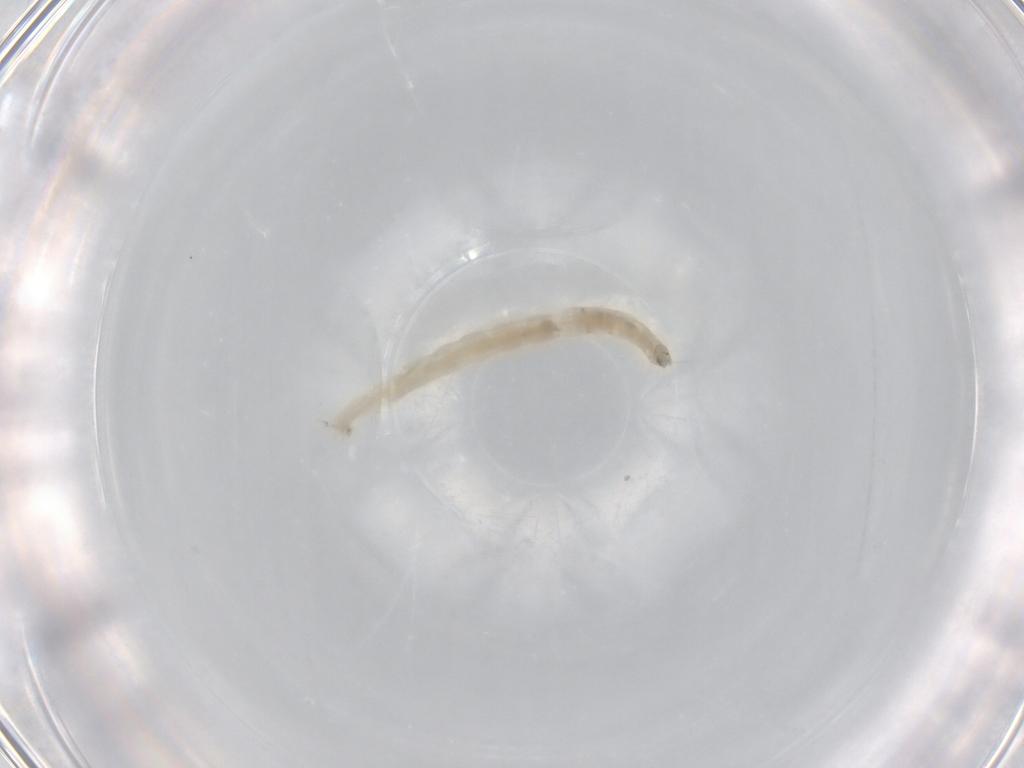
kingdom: Animalia
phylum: Arthropoda
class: Insecta
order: Diptera
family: Chironomidae
